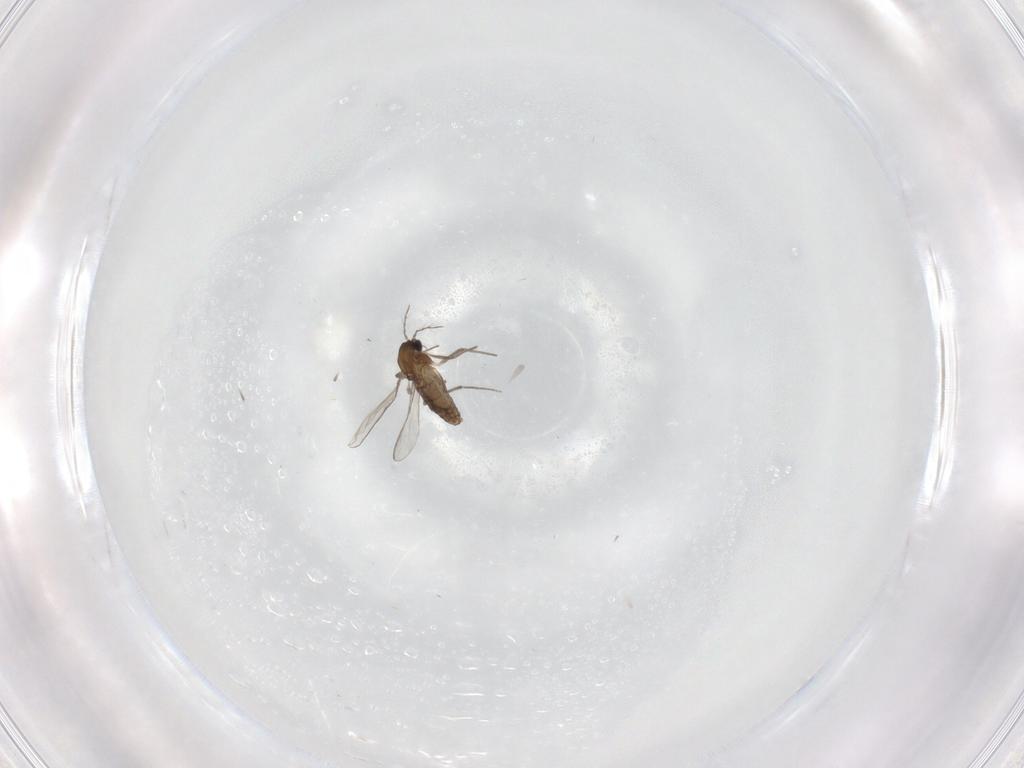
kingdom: Animalia
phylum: Arthropoda
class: Insecta
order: Diptera
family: Chironomidae
